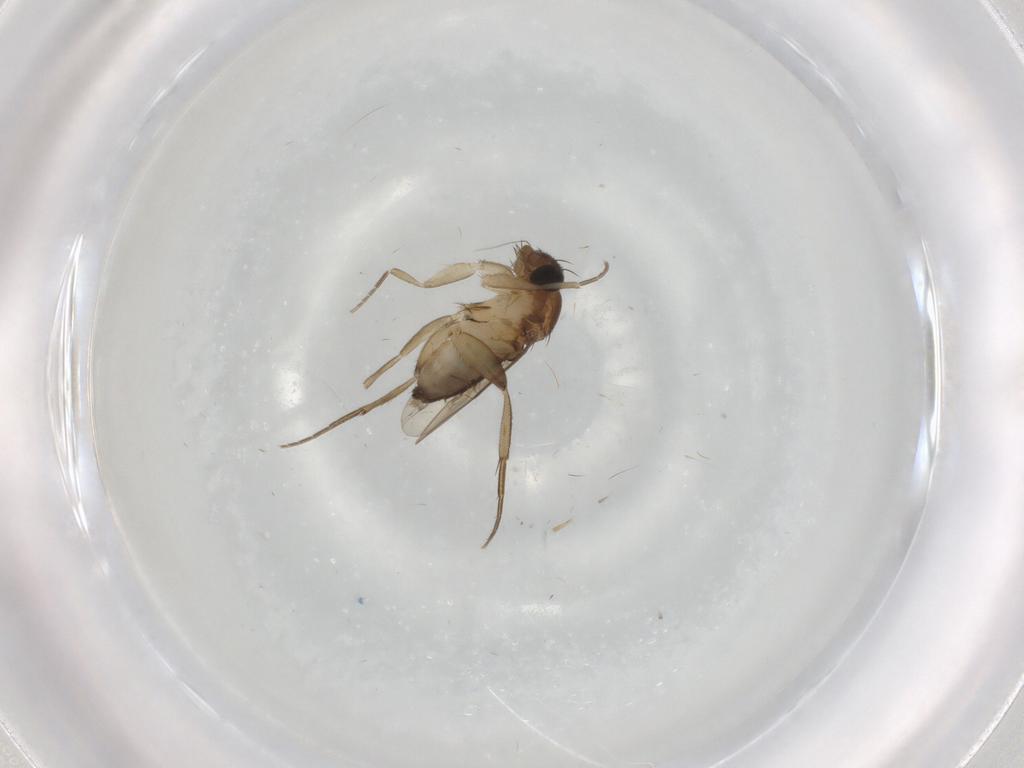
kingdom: Animalia
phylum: Arthropoda
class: Insecta
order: Diptera
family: Phoridae
